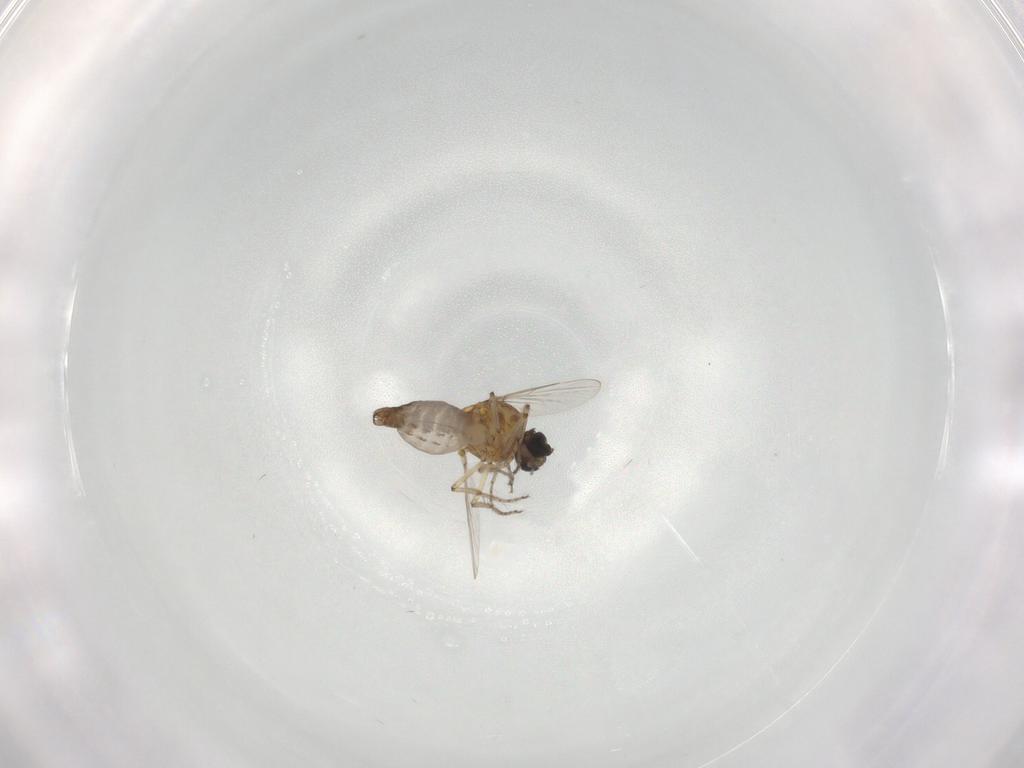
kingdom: Animalia
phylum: Arthropoda
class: Insecta
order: Diptera
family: Ceratopogonidae
